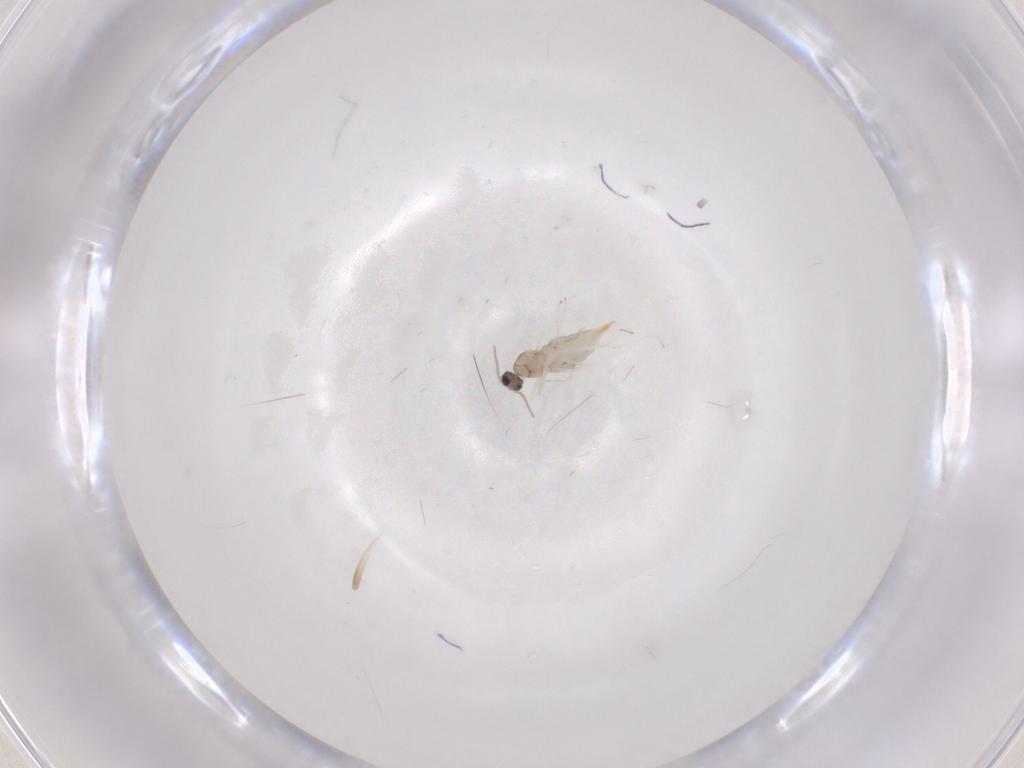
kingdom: Animalia
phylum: Arthropoda
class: Insecta
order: Diptera
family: Cecidomyiidae
